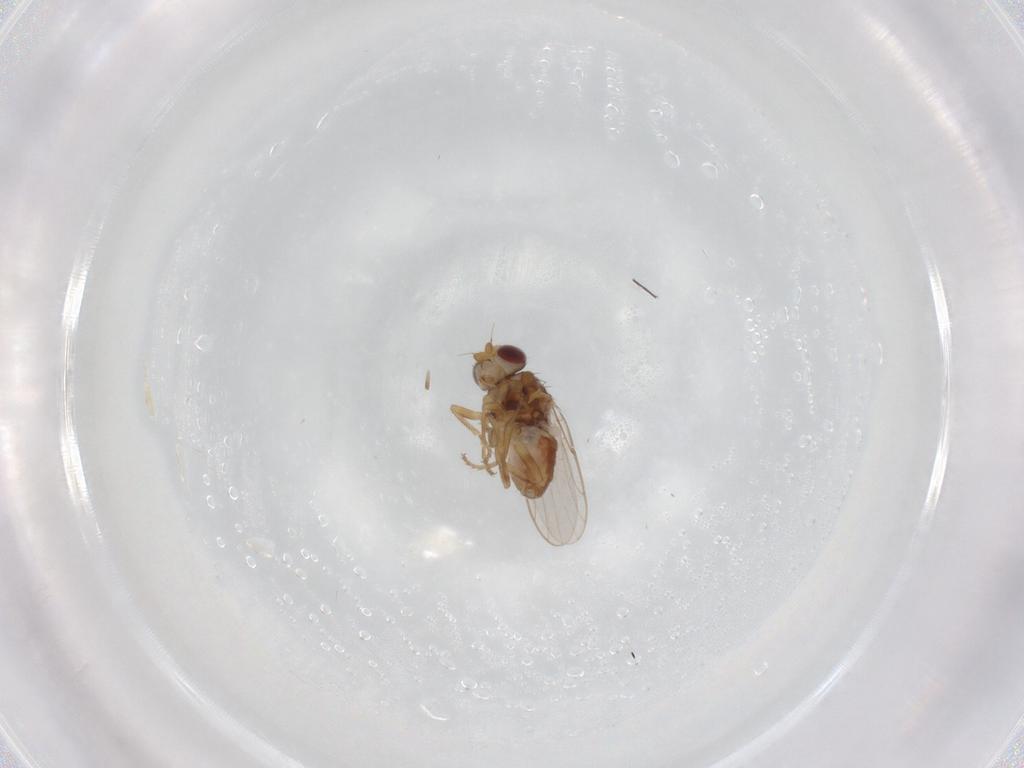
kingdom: Animalia
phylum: Arthropoda
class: Insecta
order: Diptera
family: Chloropidae
